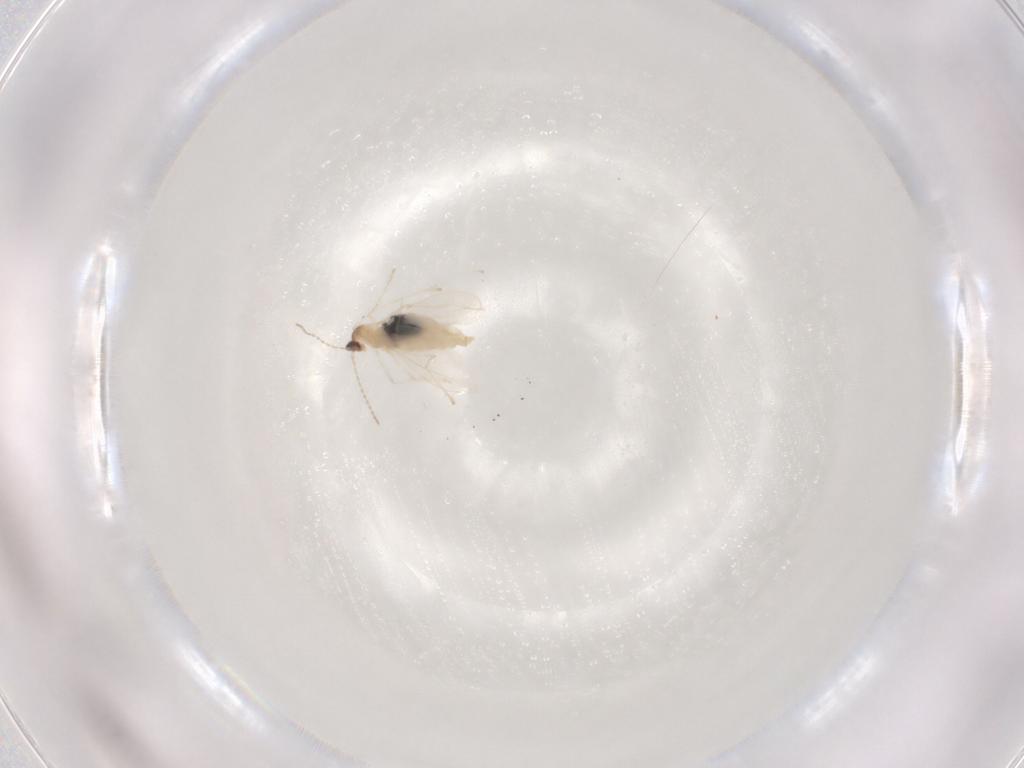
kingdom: Animalia
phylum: Arthropoda
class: Insecta
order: Diptera
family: Cecidomyiidae
